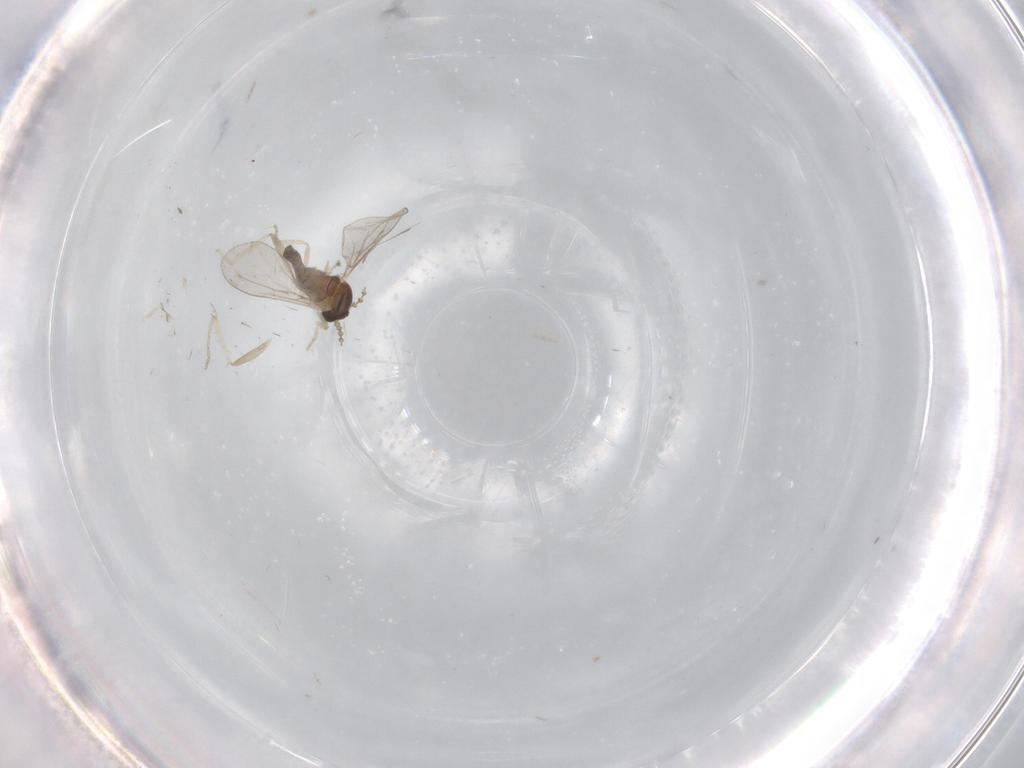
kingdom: Animalia
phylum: Arthropoda
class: Insecta
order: Diptera
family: Cecidomyiidae
